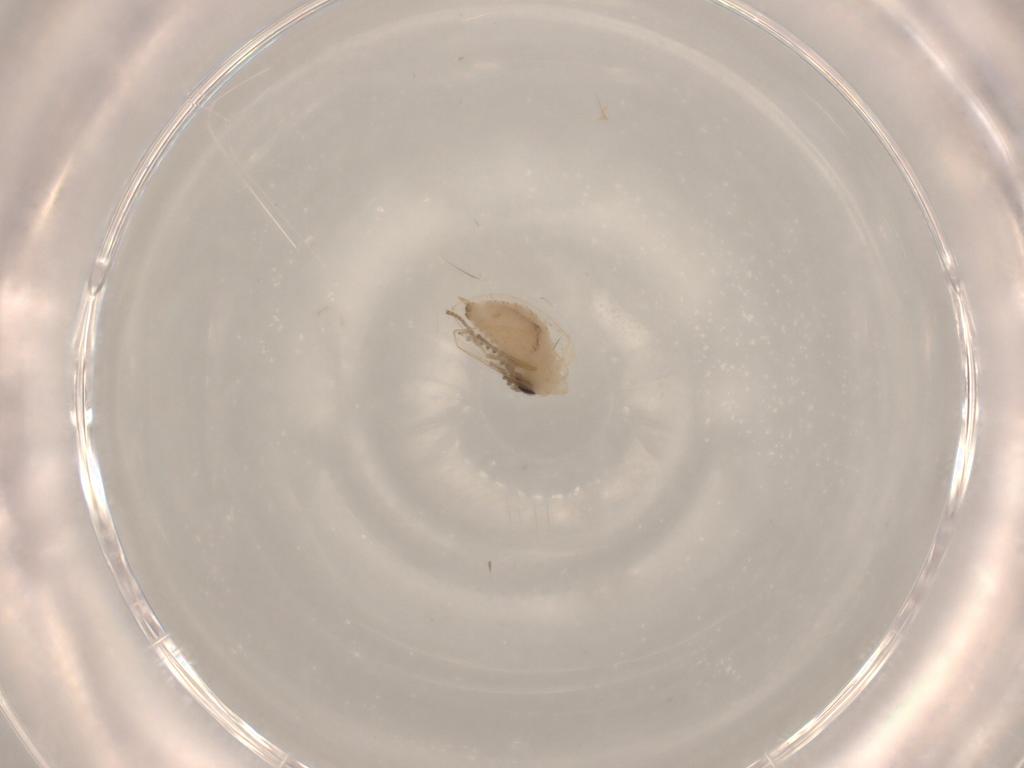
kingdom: Animalia
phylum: Arthropoda
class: Insecta
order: Diptera
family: Psychodidae
